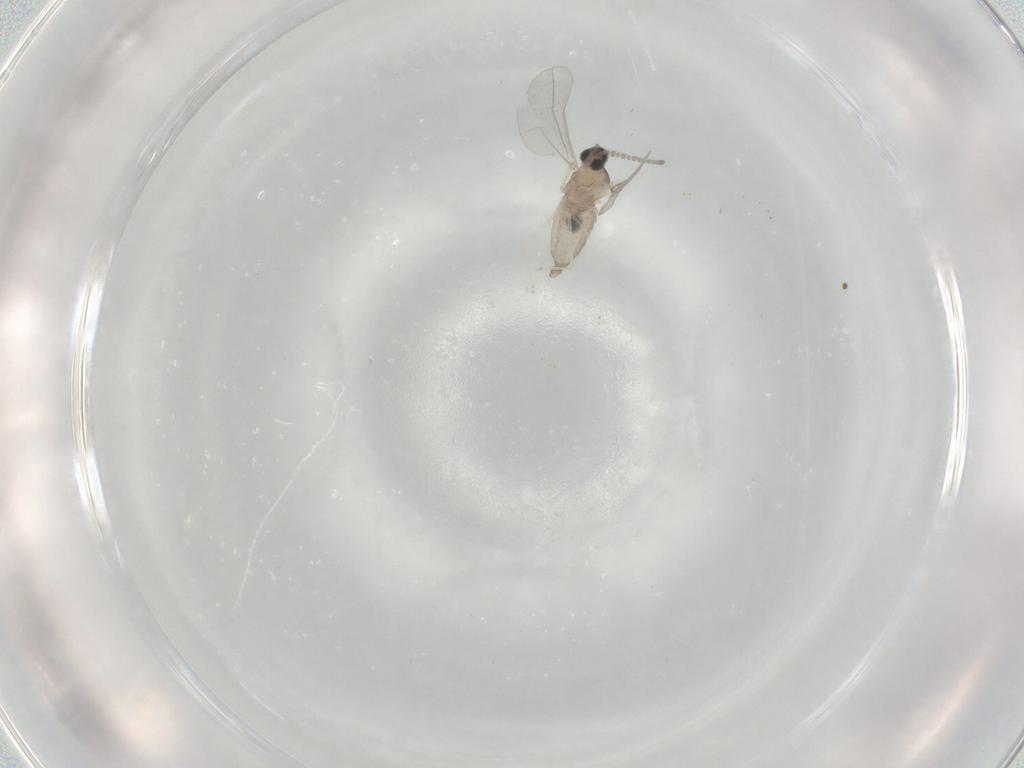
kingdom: Animalia
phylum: Arthropoda
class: Insecta
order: Diptera
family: Cecidomyiidae
